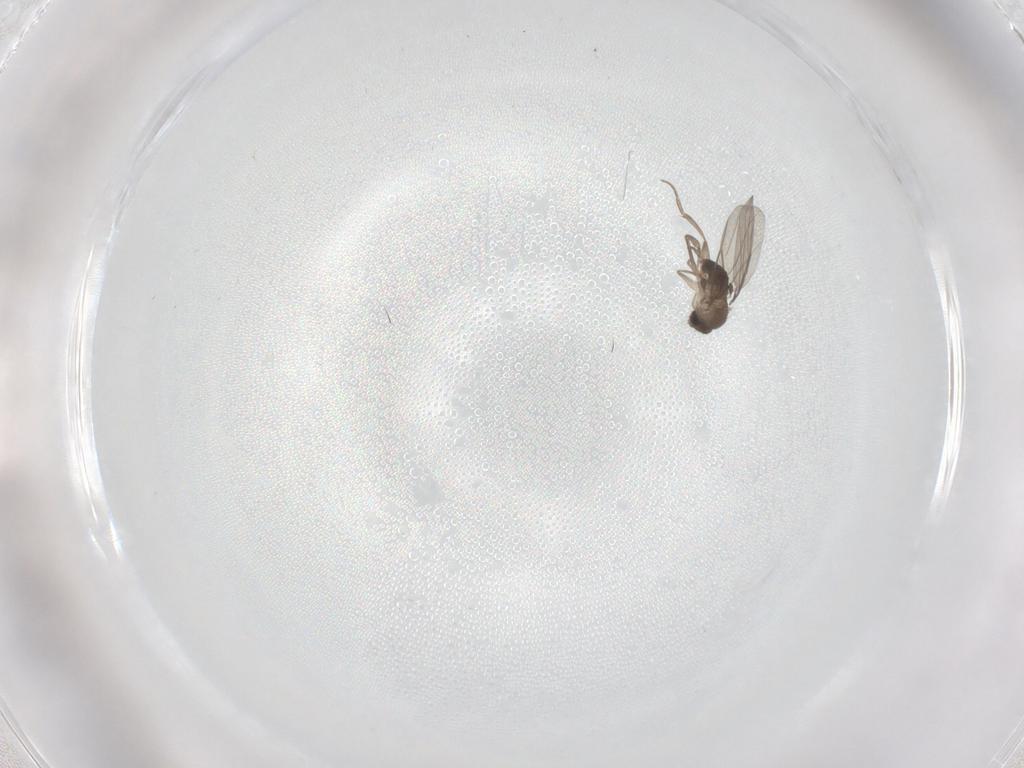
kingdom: Animalia
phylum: Arthropoda
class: Insecta
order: Diptera
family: Phoridae
